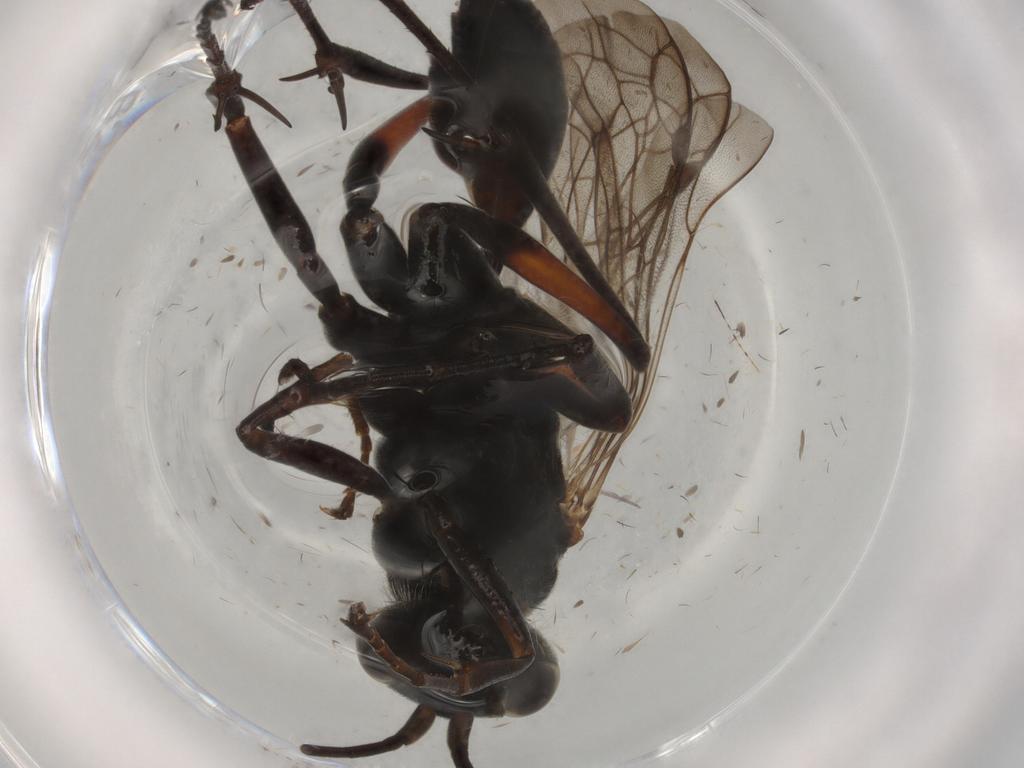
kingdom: Animalia
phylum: Arthropoda
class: Insecta
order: Hymenoptera
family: Pompilidae
